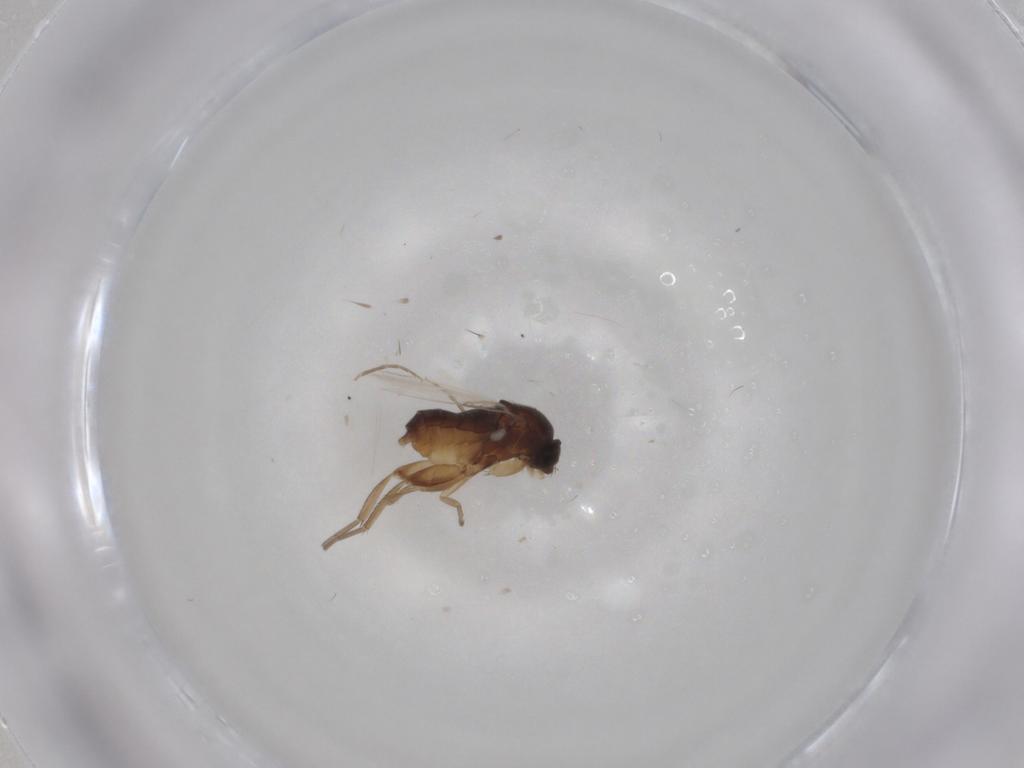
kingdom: Animalia
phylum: Arthropoda
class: Insecta
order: Diptera
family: Phoridae
